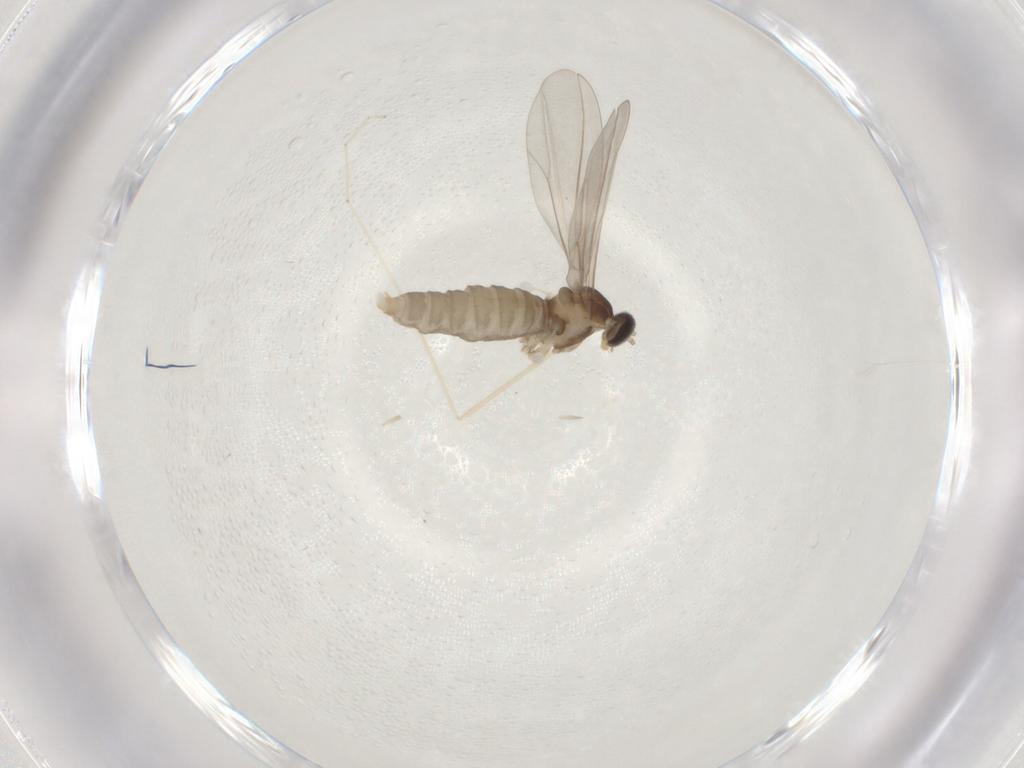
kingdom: Animalia
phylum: Arthropoda
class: Insecta
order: Diptera
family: Cecidomyiidae
